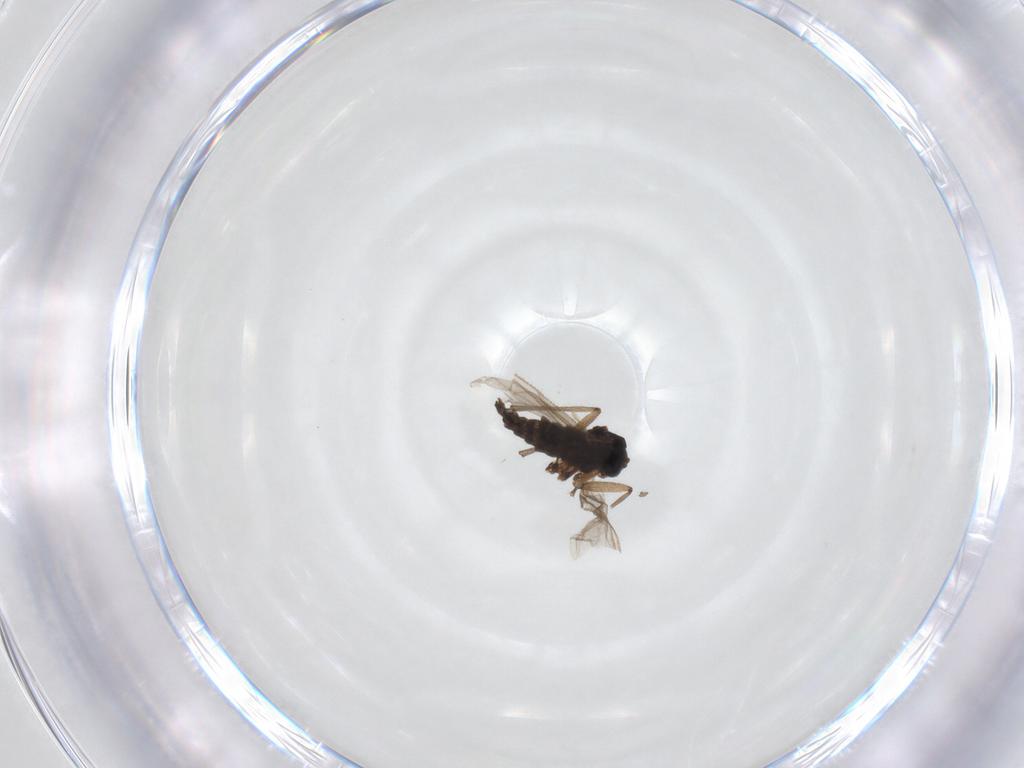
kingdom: Animalia
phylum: Arthropoda
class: Insecta
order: Diptera
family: Sciaridae
